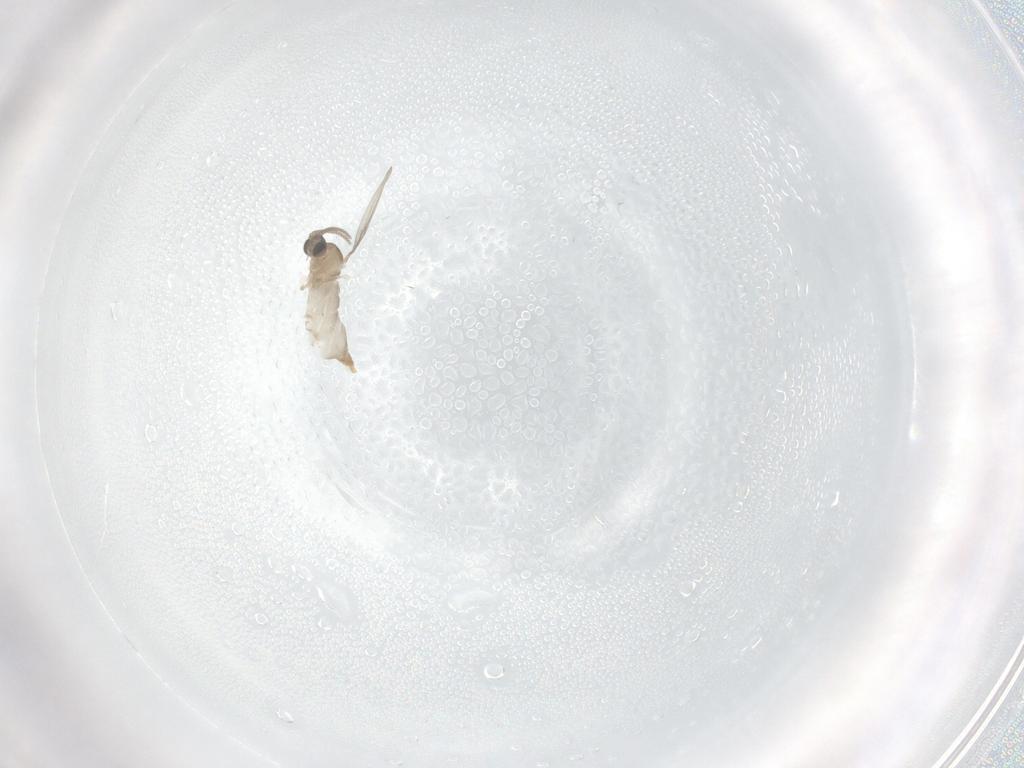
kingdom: Animalia
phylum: Arthropoda
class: Insecta
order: Diptera
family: Cecidomyiidae
